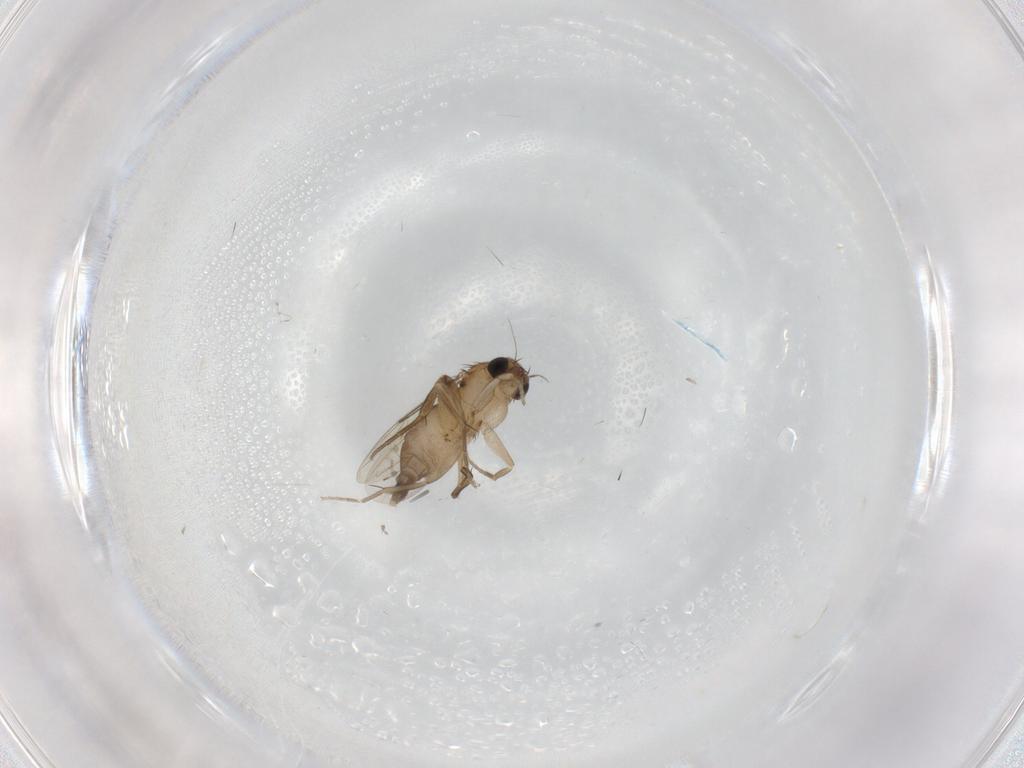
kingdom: Animalia
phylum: Arthropoda
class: Insecta
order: Diptera
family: Phoridae
